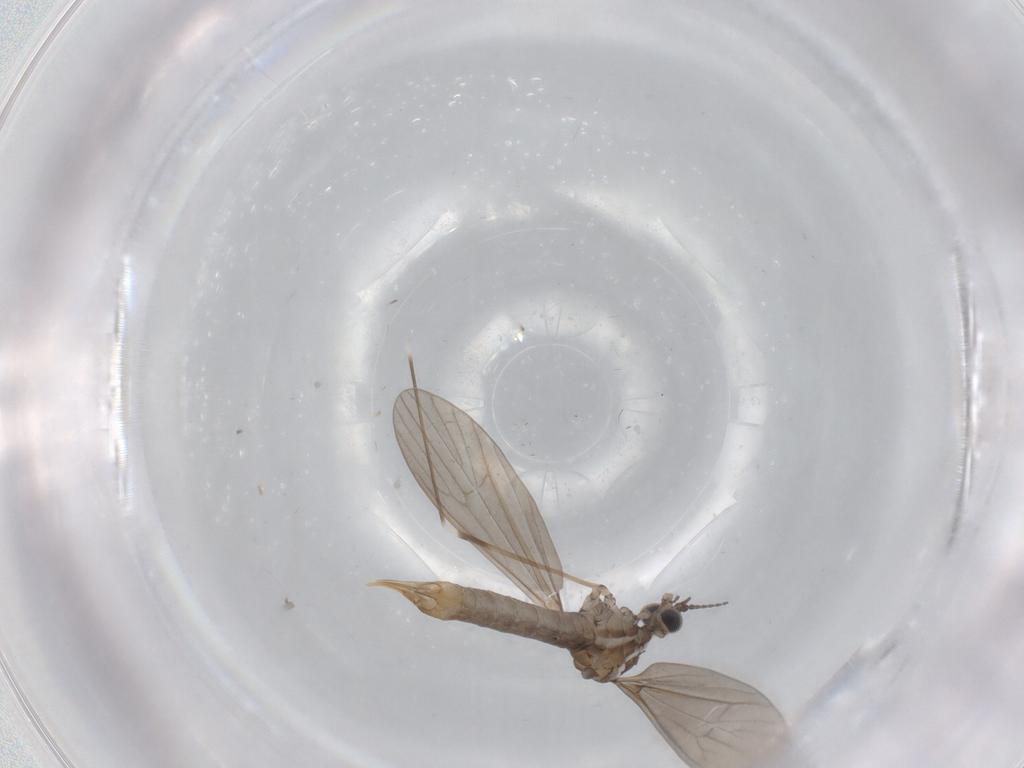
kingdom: Animalia
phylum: Arthropoda
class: Insecta
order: Diptera
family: Limoniidae
